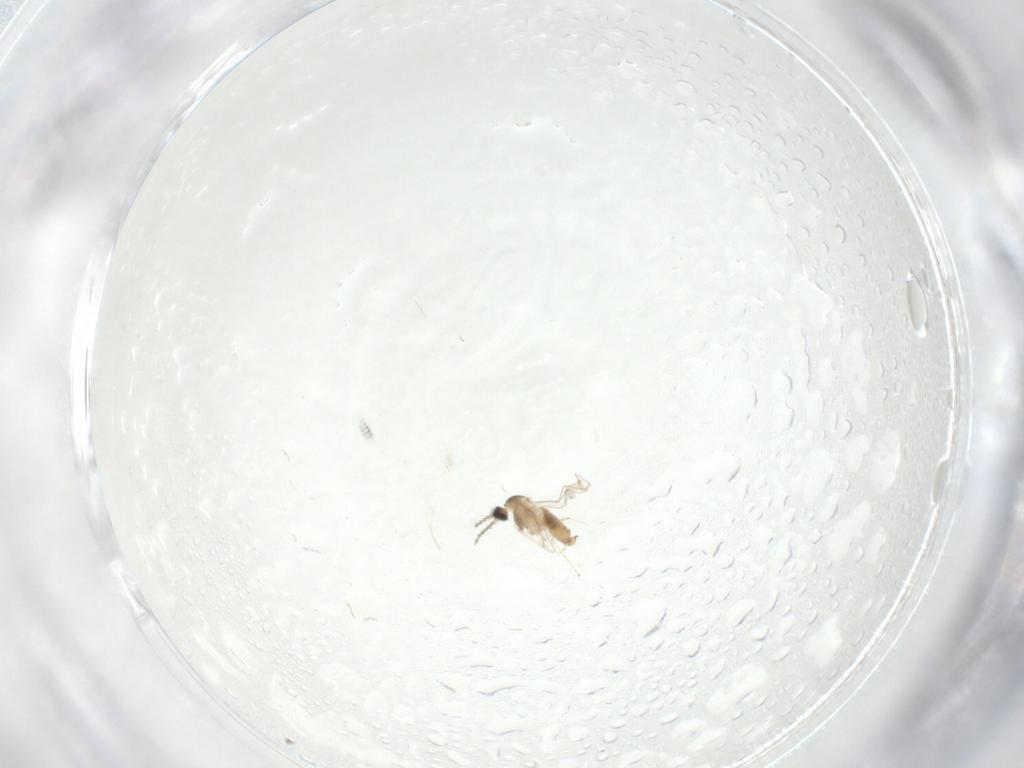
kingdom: Animalia
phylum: Arthropoda
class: Insecta
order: Diptera
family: Cecidomyiidae
